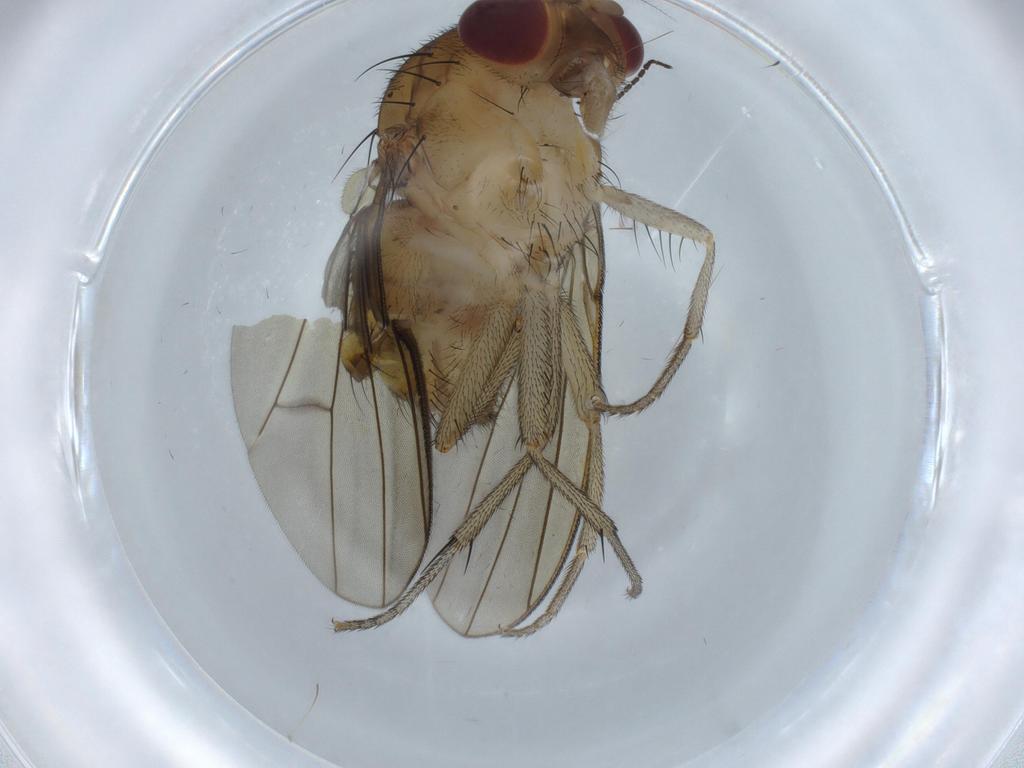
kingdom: Animalia
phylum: Arthropoda
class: Insecta
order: Diptera
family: Lauxaniidae
